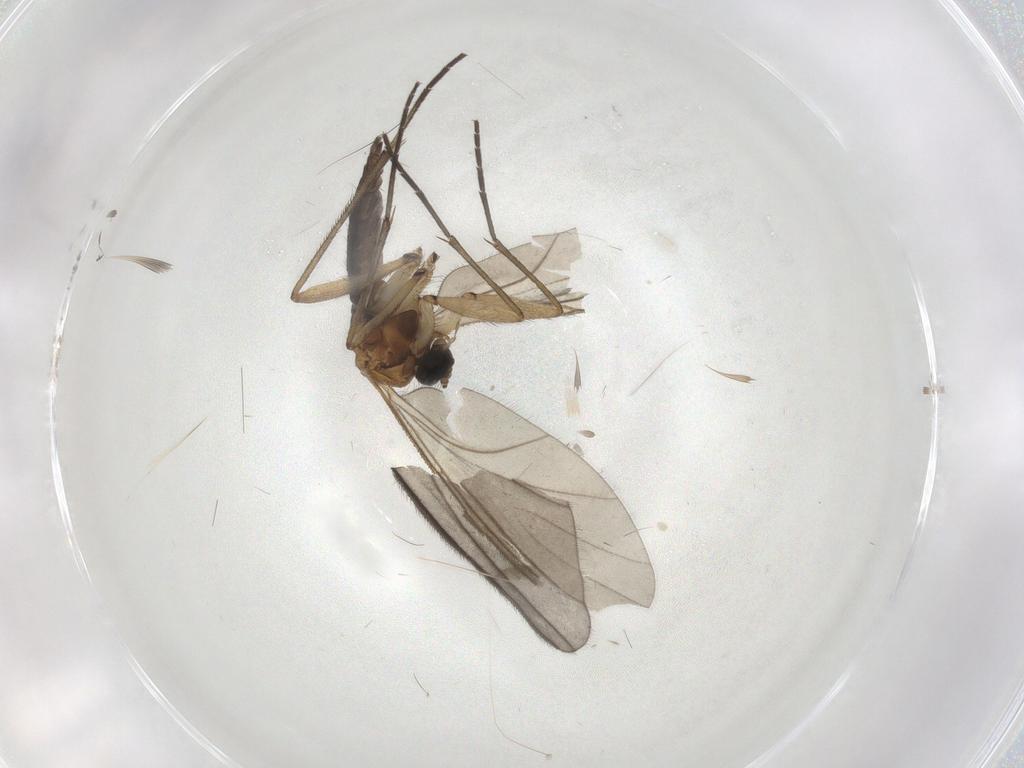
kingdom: Animalia
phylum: Arthropoda
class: Insecta
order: Diptera
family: Sciaridae
